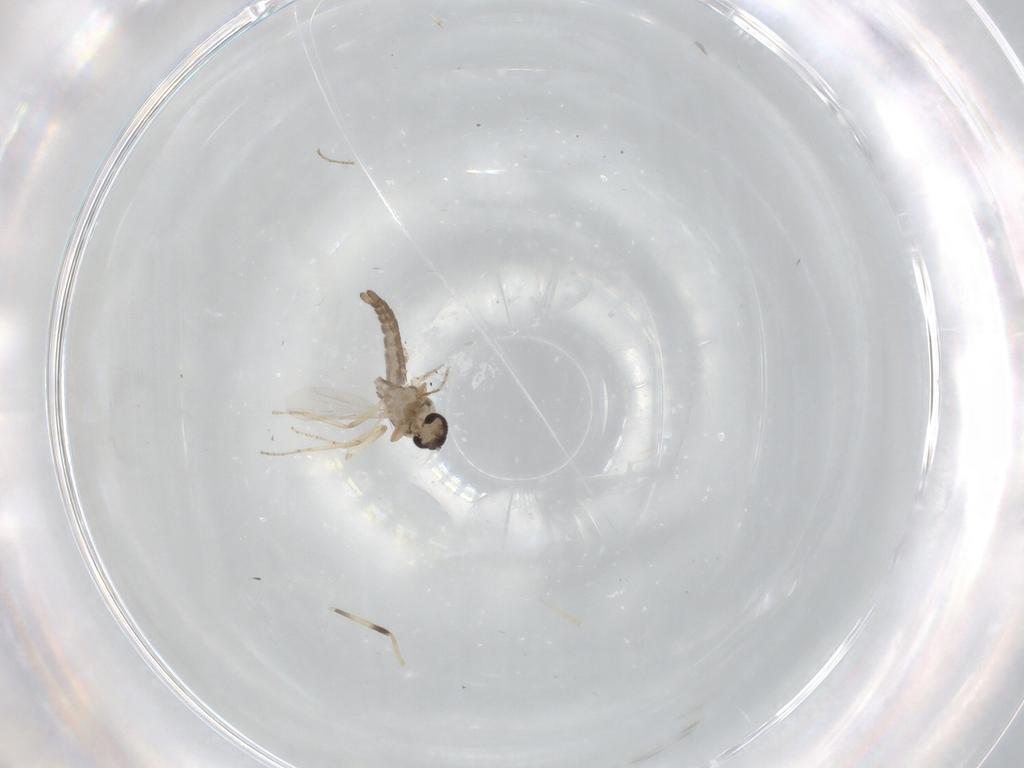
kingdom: Animalia
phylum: Arthropoda
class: Insecta
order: Diptera
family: Ceratopogonidae
